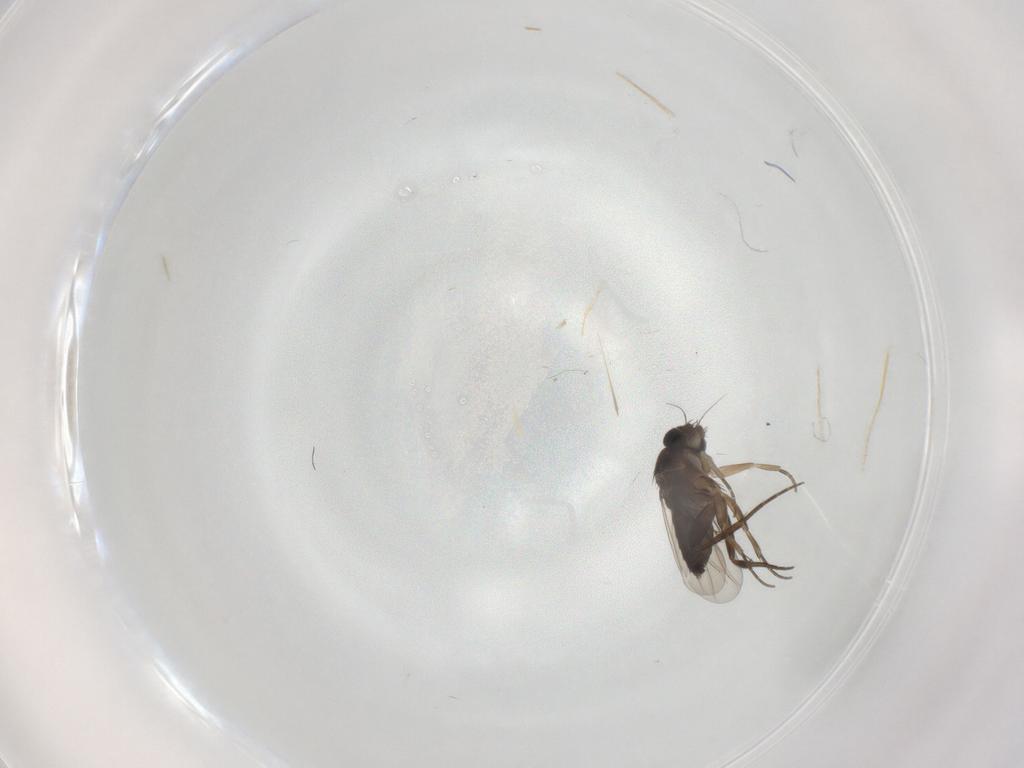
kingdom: Animalia
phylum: Arthropoda
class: Insecta
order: Diptera
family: Phoridae
